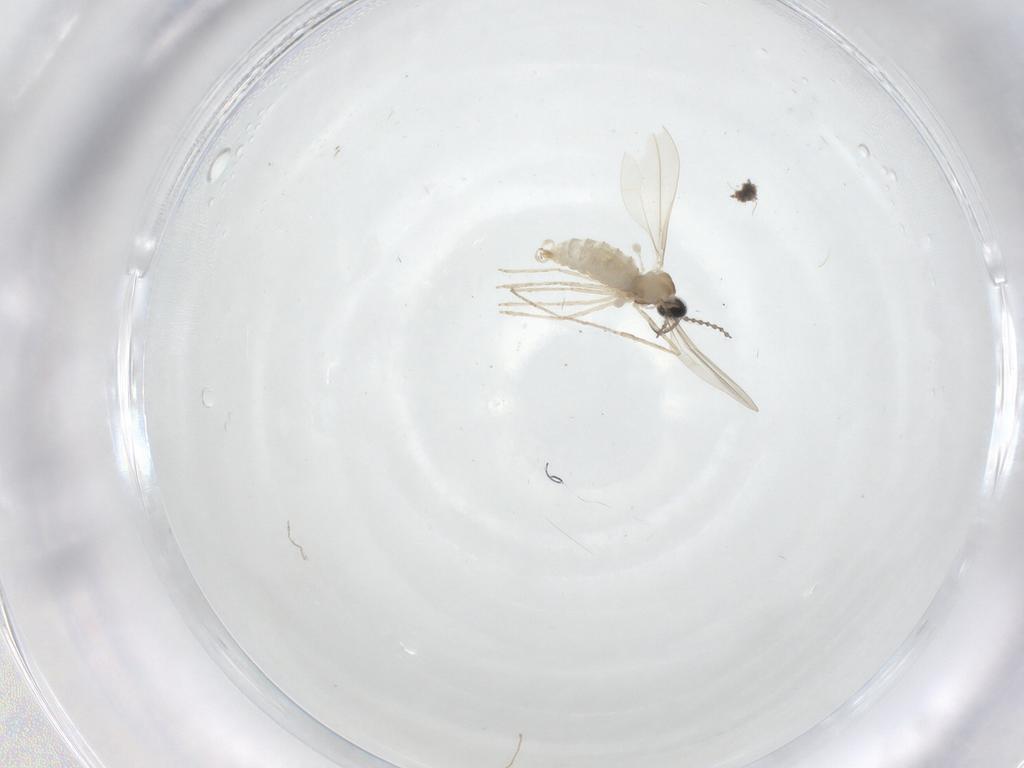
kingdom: Animalia
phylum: Arthropoda
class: Insecta
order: Diptera
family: Cecidomyiidae
